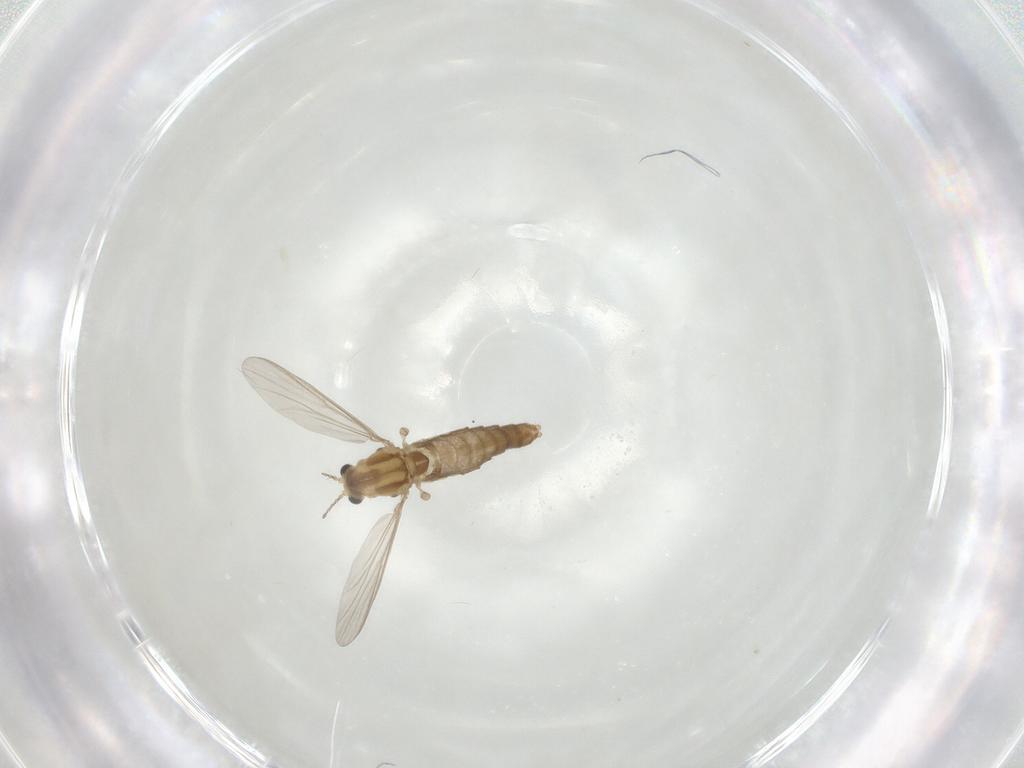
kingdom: Animalia
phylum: Arthropoda
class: Insecta
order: Diptera
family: Chironomidae
